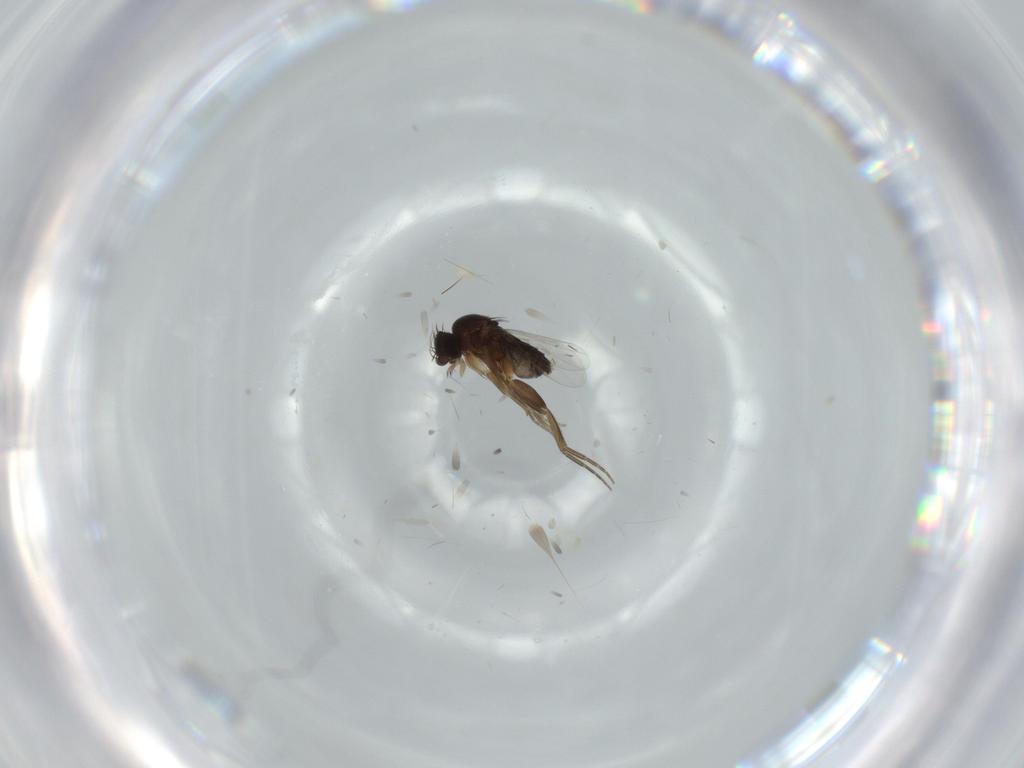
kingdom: Animalia
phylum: Arthropoda
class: Insecta
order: Diptera
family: Phoridae
